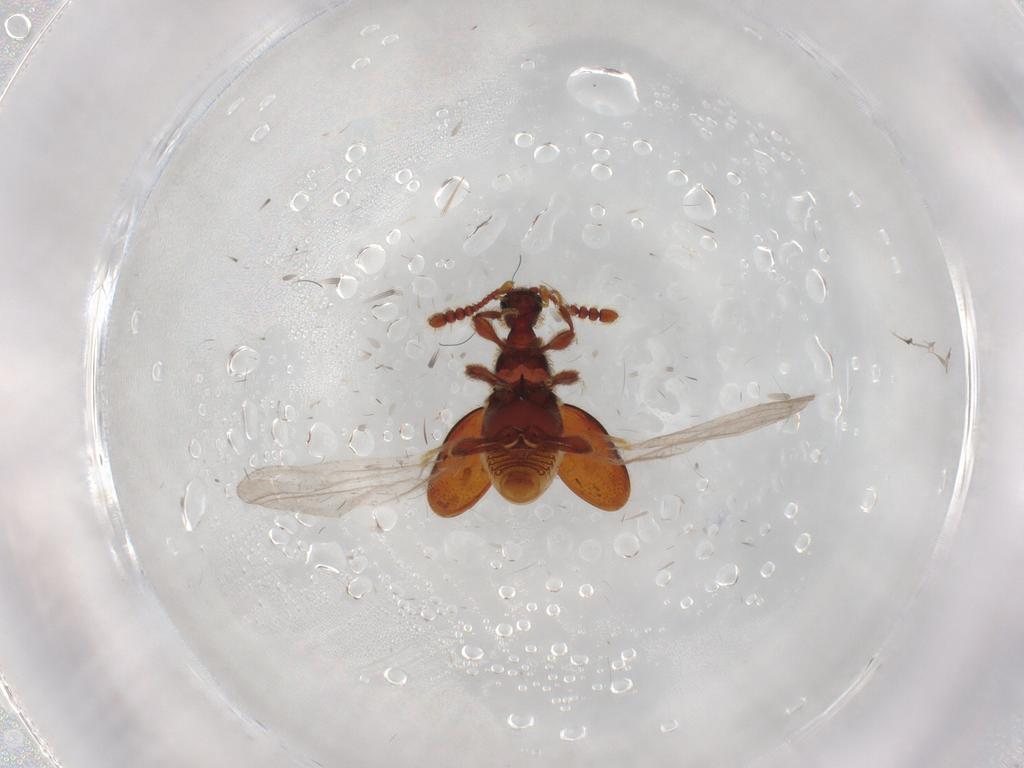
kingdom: Animalia
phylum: Arthropoda
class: Insecta
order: Coleoptera
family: Staphylinidae
